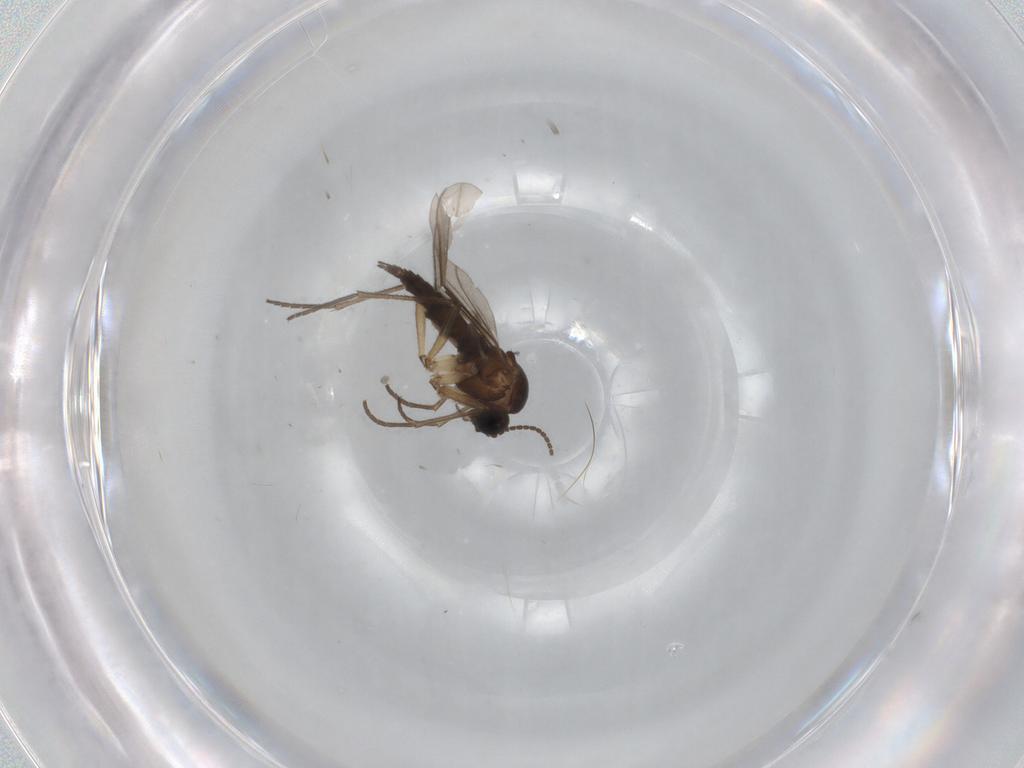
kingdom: Animalia
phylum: Arthropoda
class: Insecta
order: Diptera
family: Sciaridae
